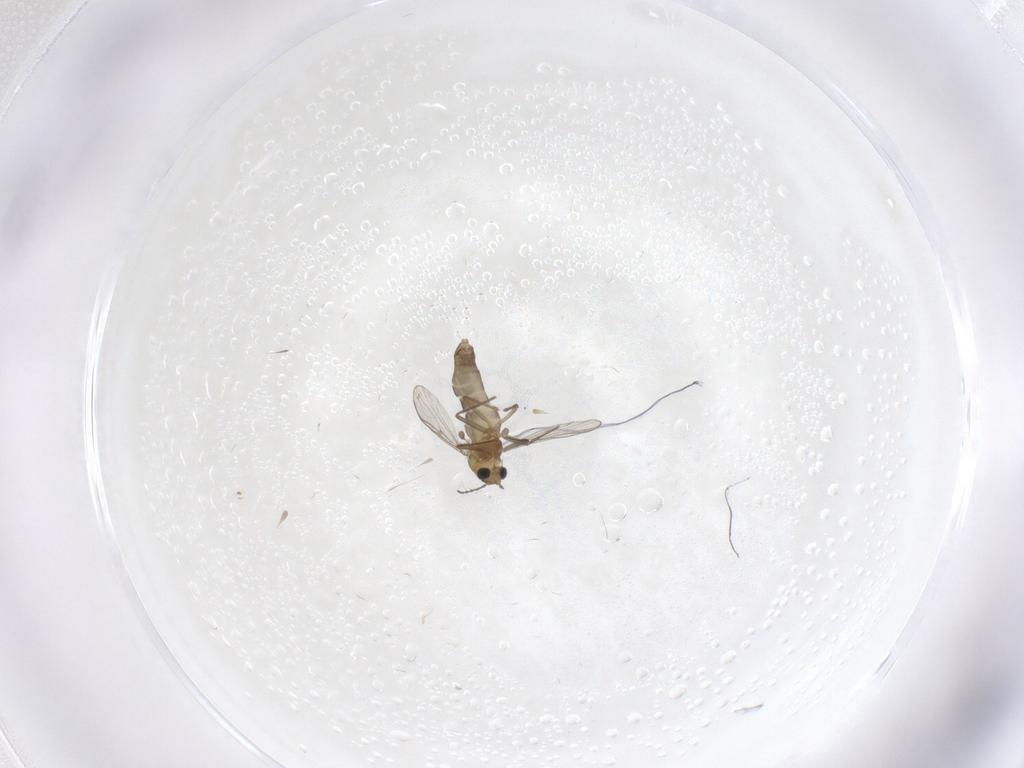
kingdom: Animalia
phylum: Arthropoda
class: Insecta
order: Diptera
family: Chironomidae
